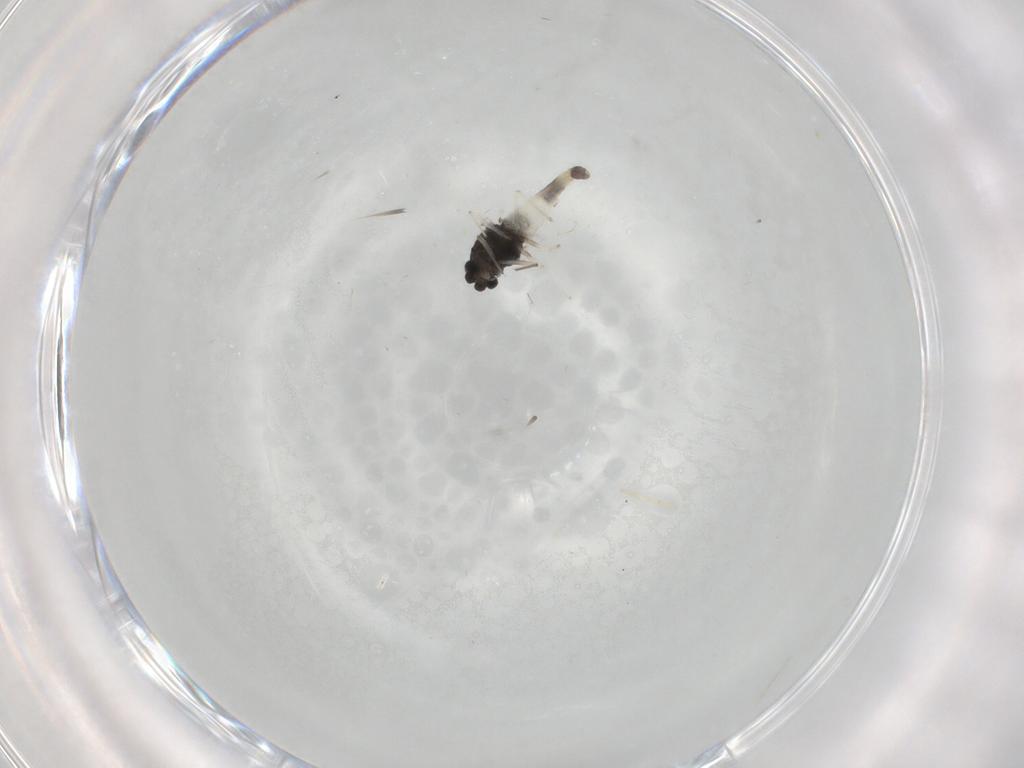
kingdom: Animalia
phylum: Arthropoda
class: Insecta
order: Diptera
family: Chironomidae
